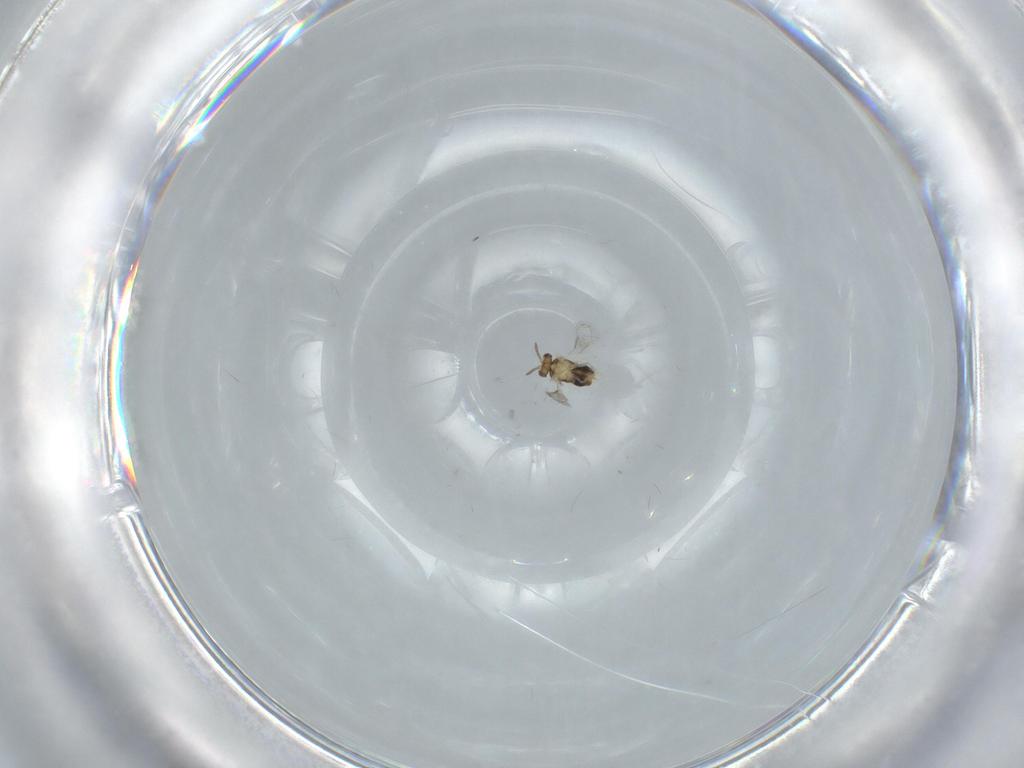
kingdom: Animalia
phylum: Arthropoda
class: Insecta
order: Hymenoptera
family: Aphelinidae
